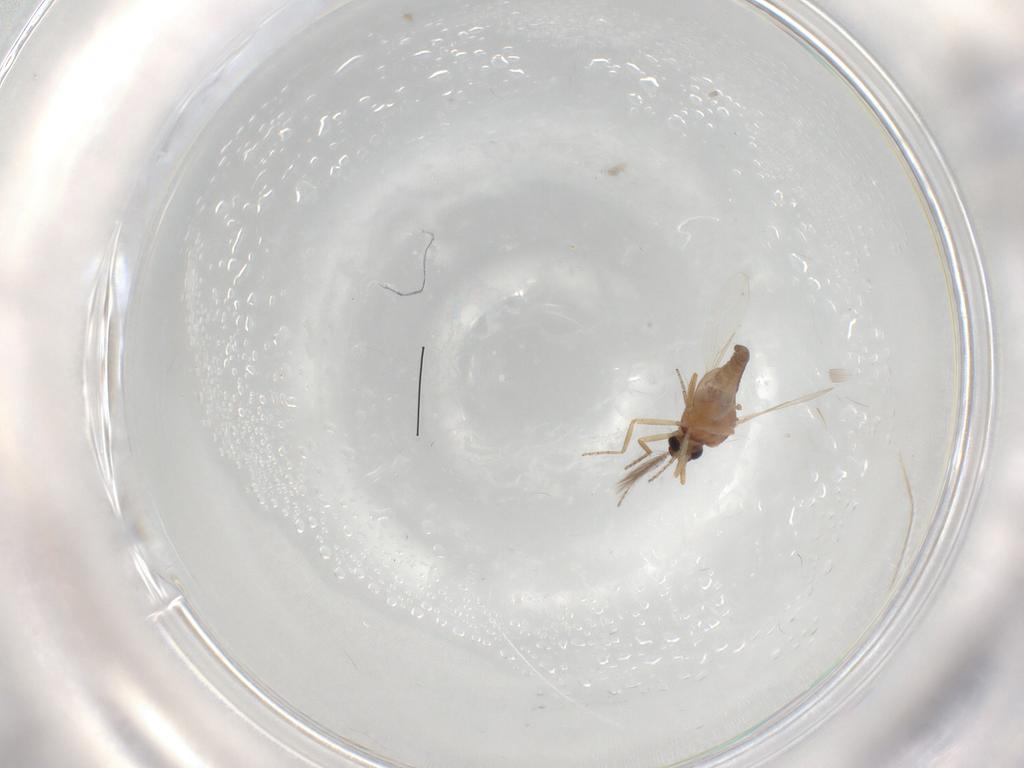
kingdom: Animalia
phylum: Arthropoda
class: Insecta
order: Diptera
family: Ceratopogonidae
